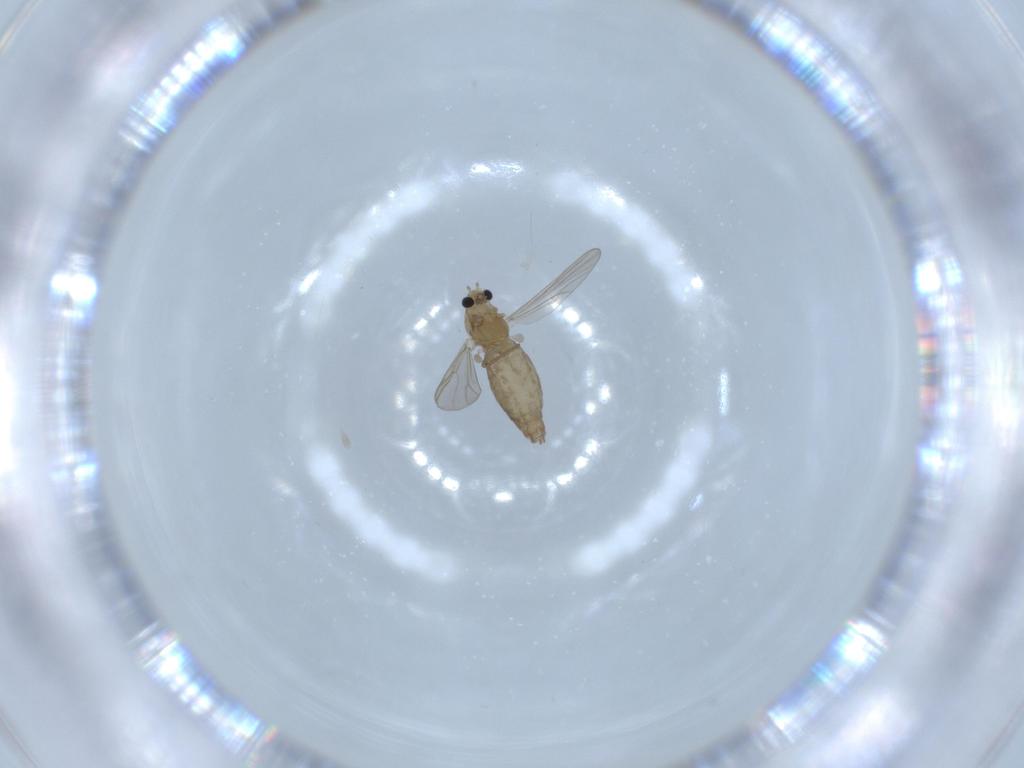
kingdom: Animalia
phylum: Arthropoda
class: Insecta
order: Diptera
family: Chironomidae
